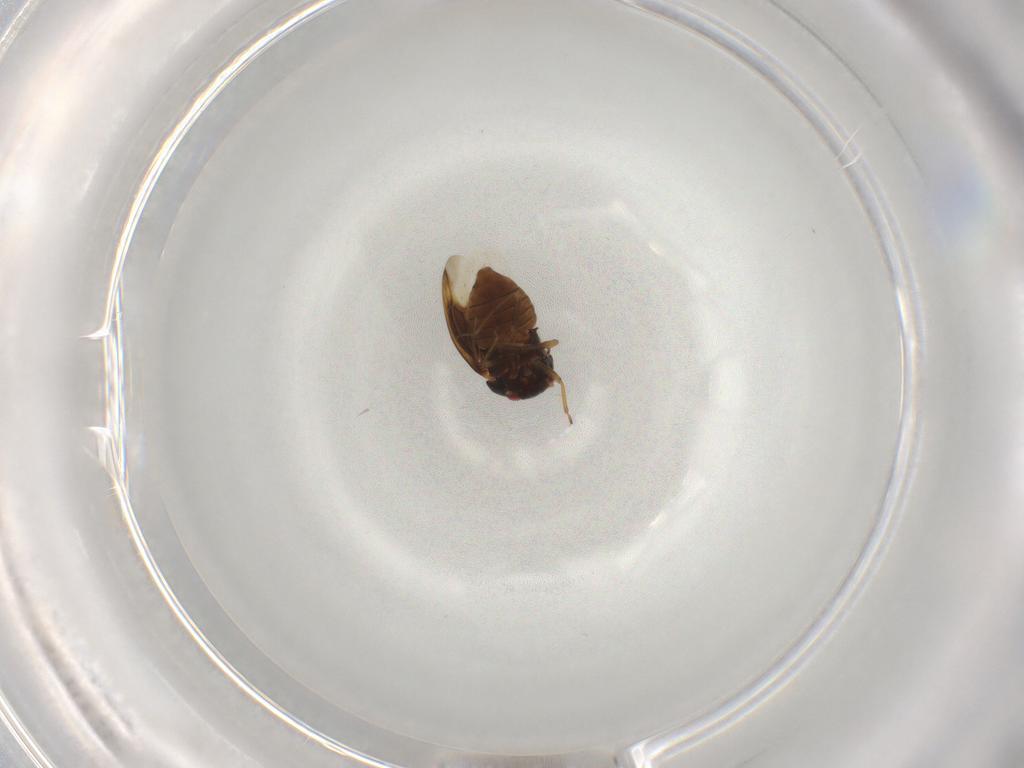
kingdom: Animalia
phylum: Arthropoda
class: Insecta
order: Hemiptera
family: Schizopteridae
